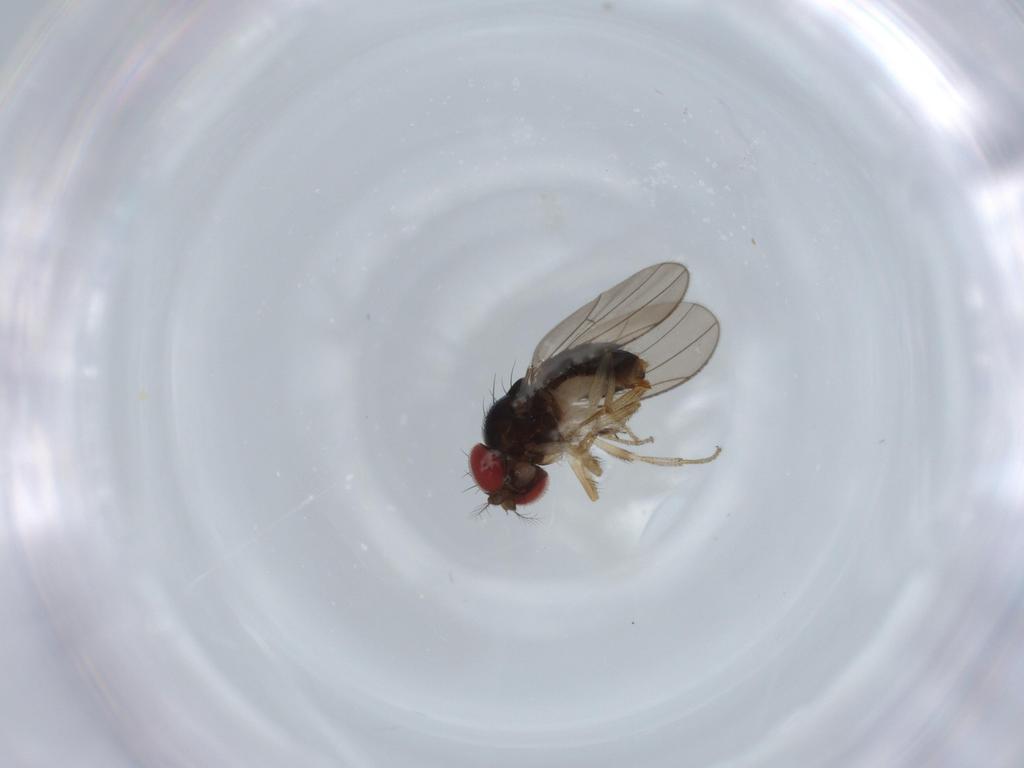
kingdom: Animalia
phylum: Arthropoda
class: Insecta
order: Diptera
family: Drosophilidae
